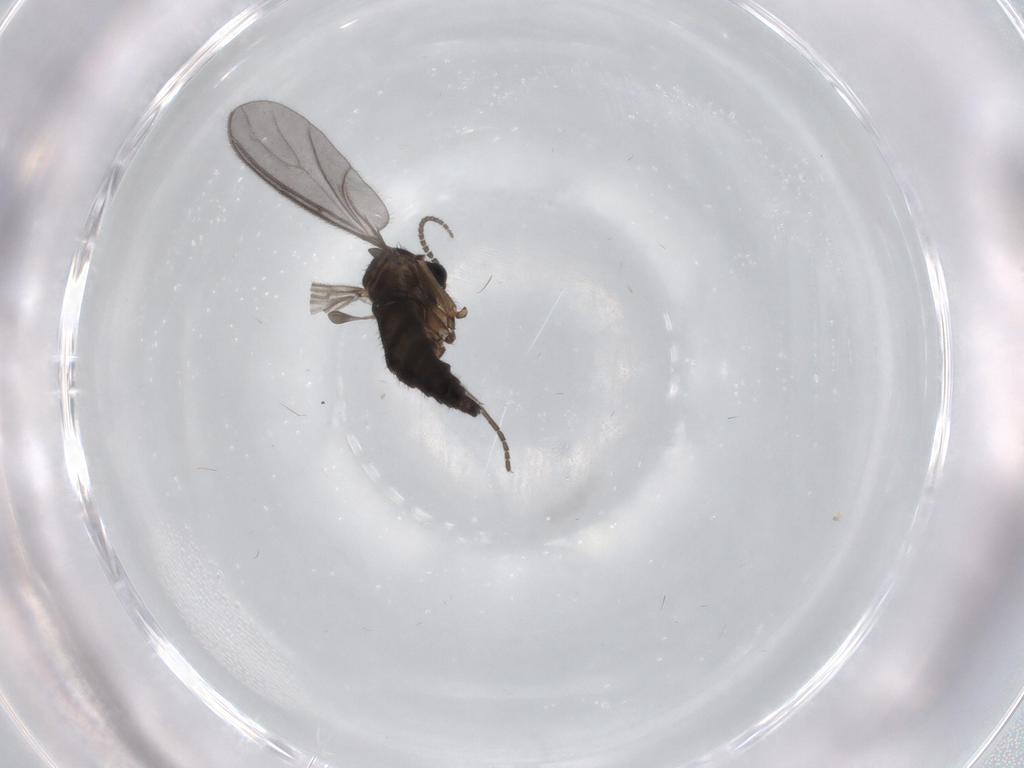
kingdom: Animalia
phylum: Arthropoda
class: Insecta
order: Diptera
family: Sciaridae
